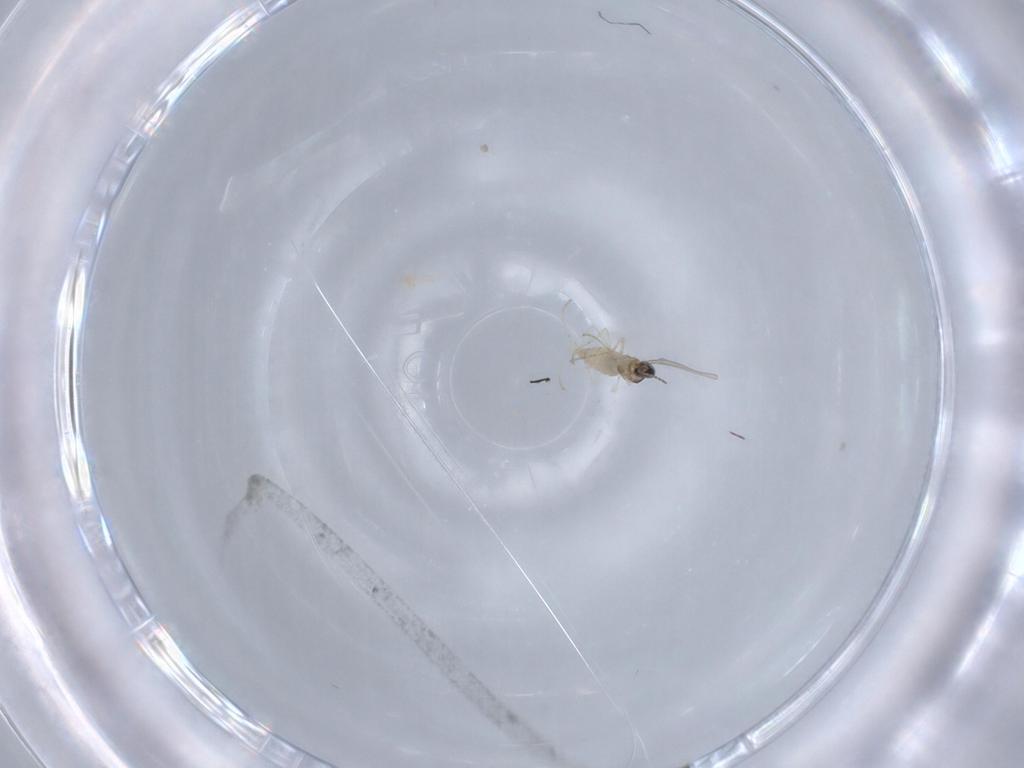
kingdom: Animalia
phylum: Arthropoda
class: Insecta
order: Diptera
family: Cecidomyiidae
